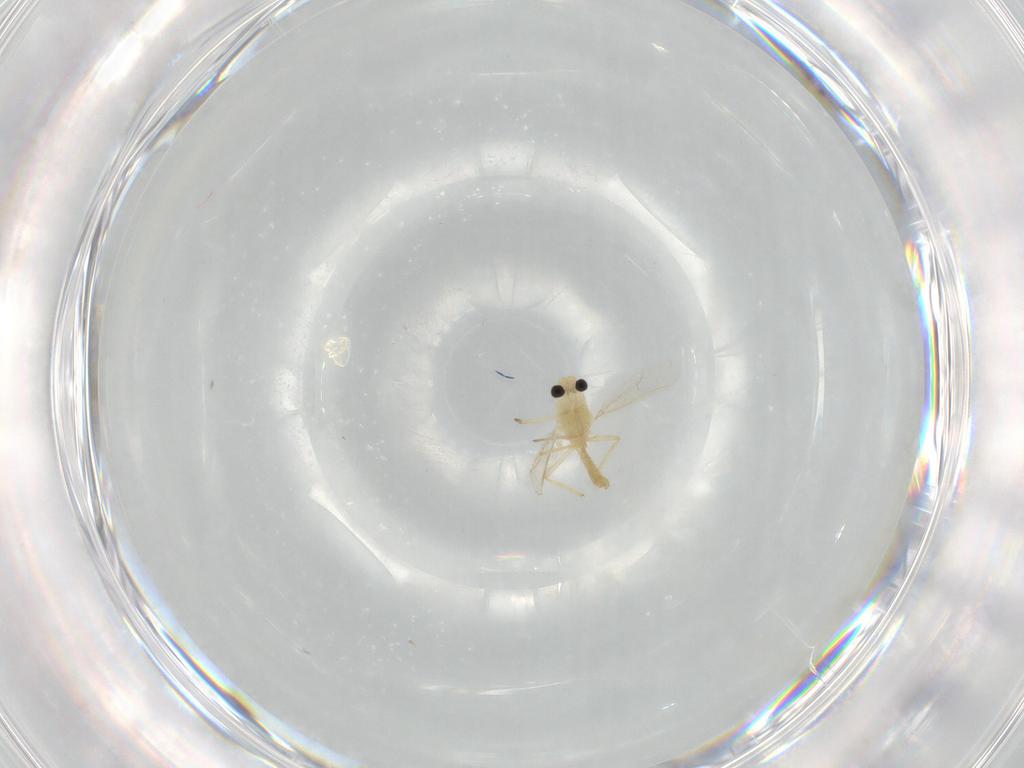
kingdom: Animalia
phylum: Arthropoda
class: Insecta
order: Diptera
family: Chironomidae
